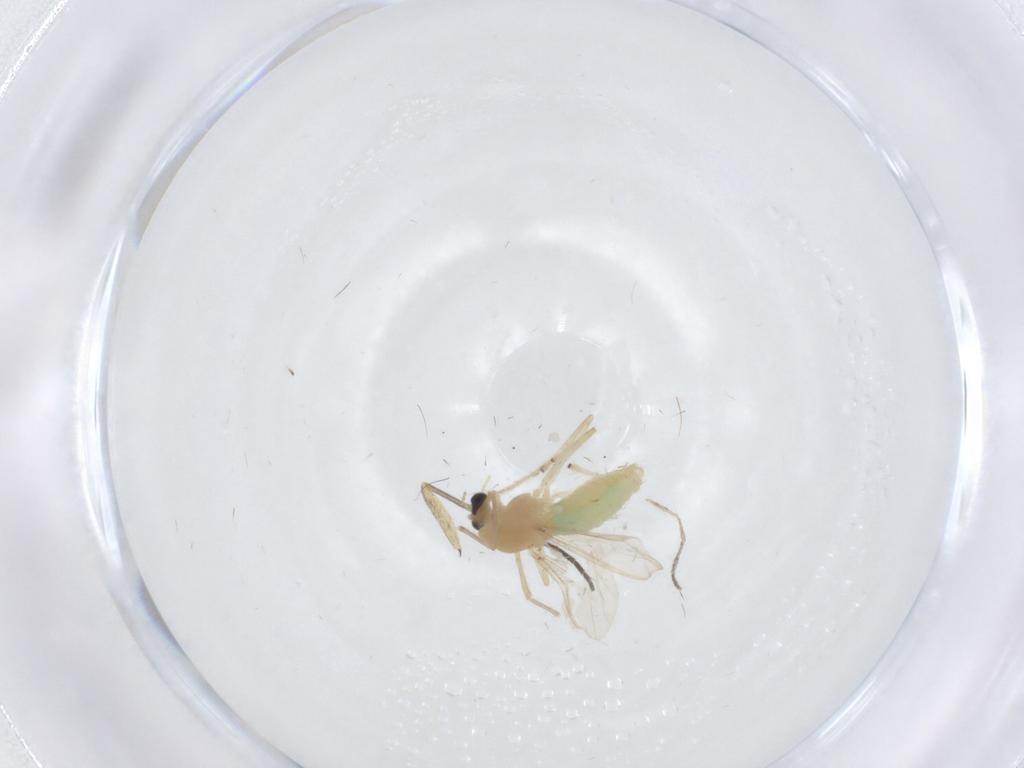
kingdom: Animalia
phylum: Arthropoda
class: Insecta
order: Diptera
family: Chironomidae
